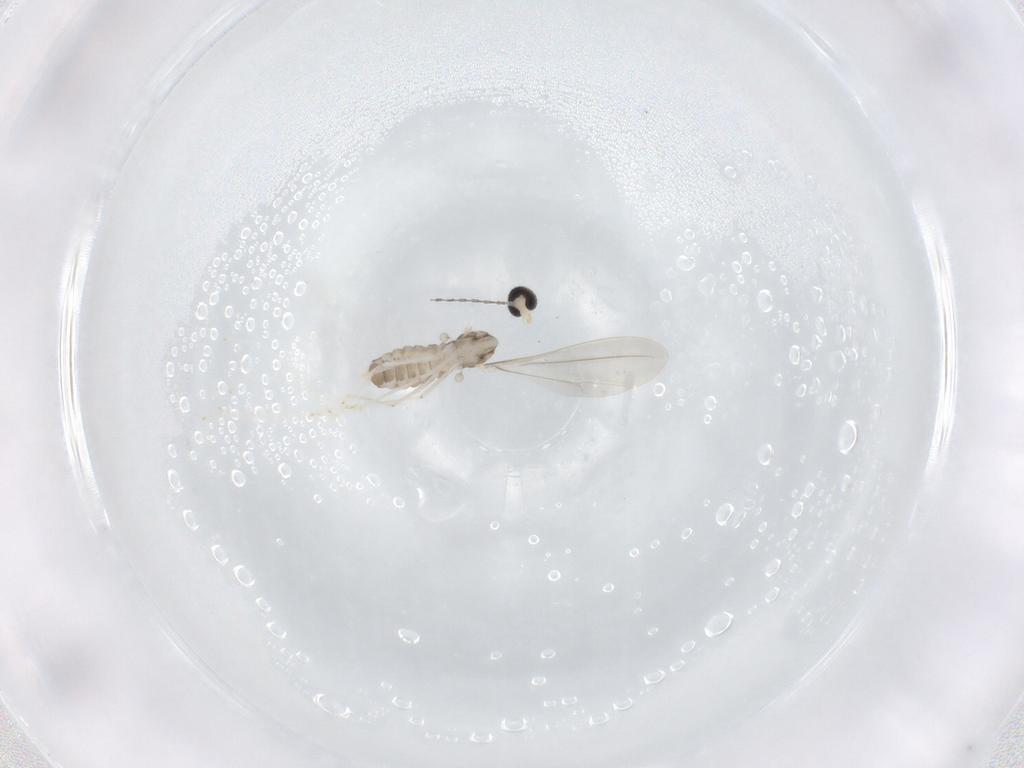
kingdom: Animalia
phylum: Arthropoda
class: Insecta
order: Diptera
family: Cecidomyiidae
